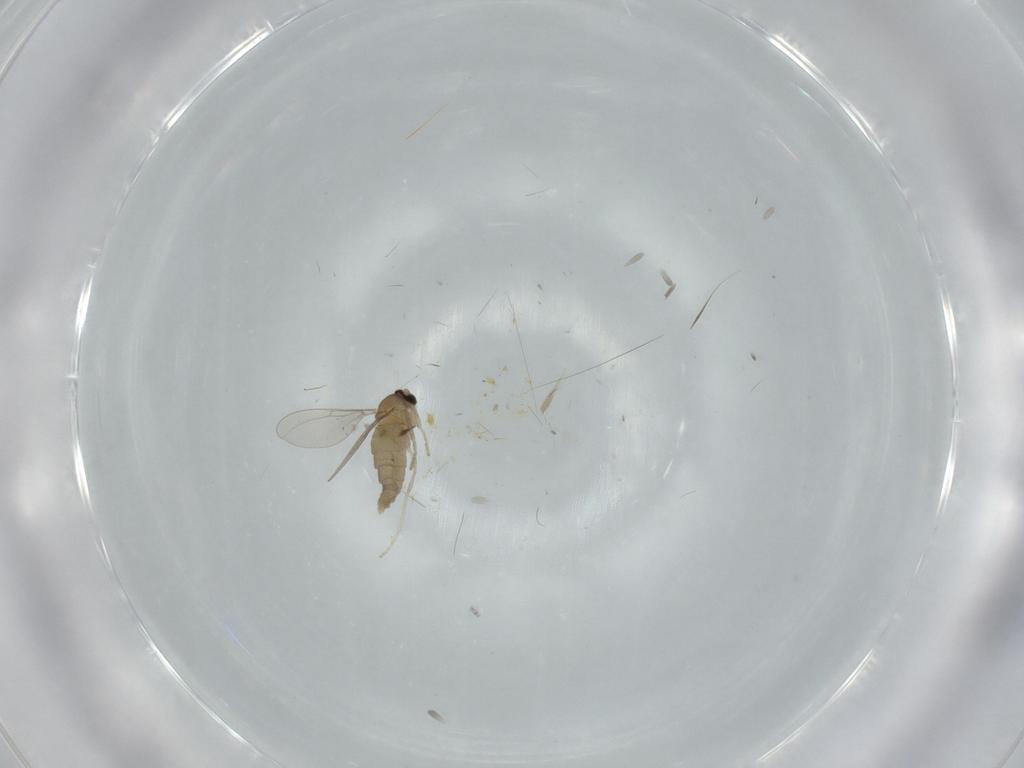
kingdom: Animalia
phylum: Arthropoda
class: Insecta
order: Diptera
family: Cecidomyiidae
